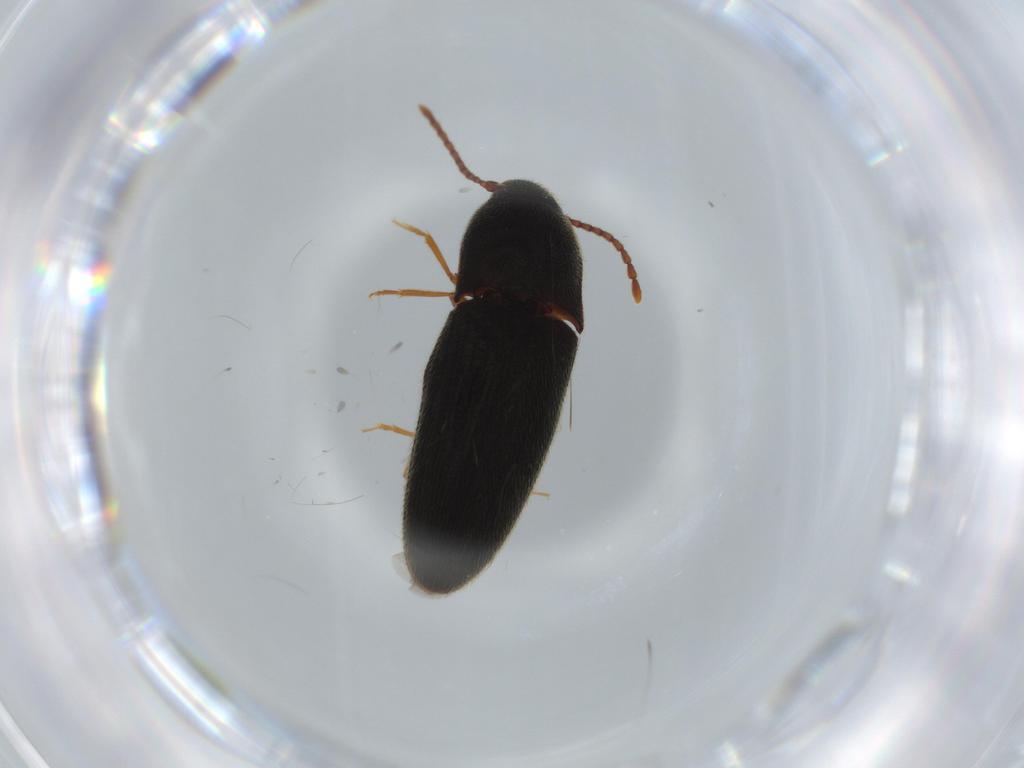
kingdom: Animalia
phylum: Arthropoda
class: Insecta
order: Coleoptera
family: Elateridae
